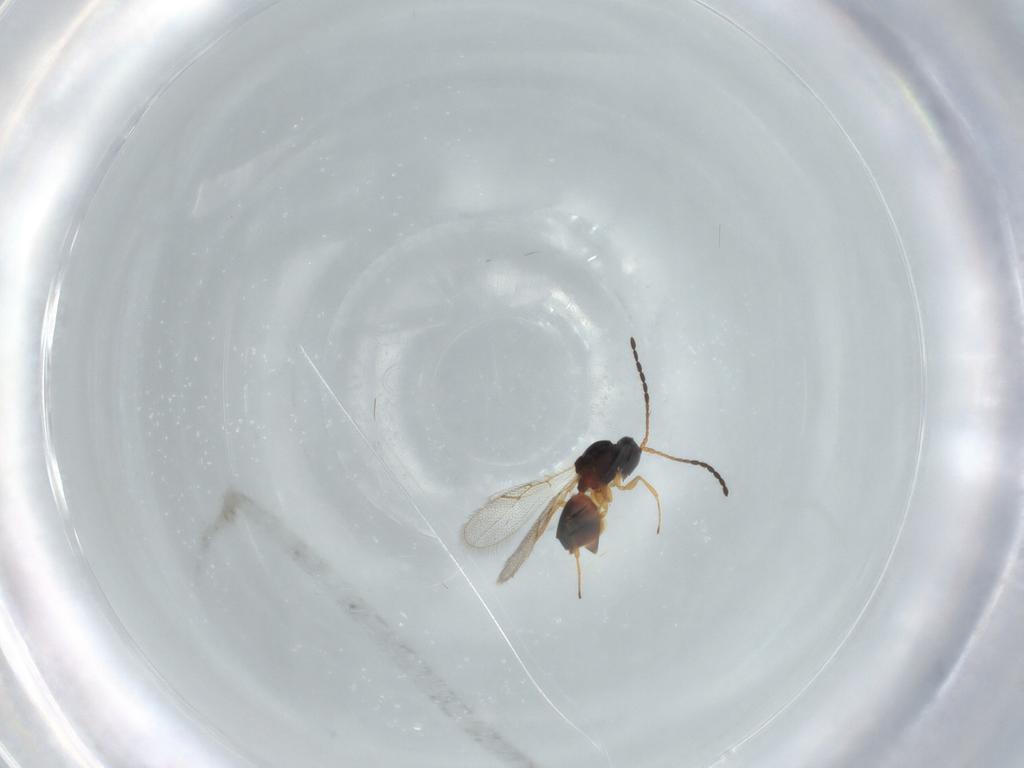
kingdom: Animalia
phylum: Arthropoda
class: Insecta
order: Hymenoptera
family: Figitidae
